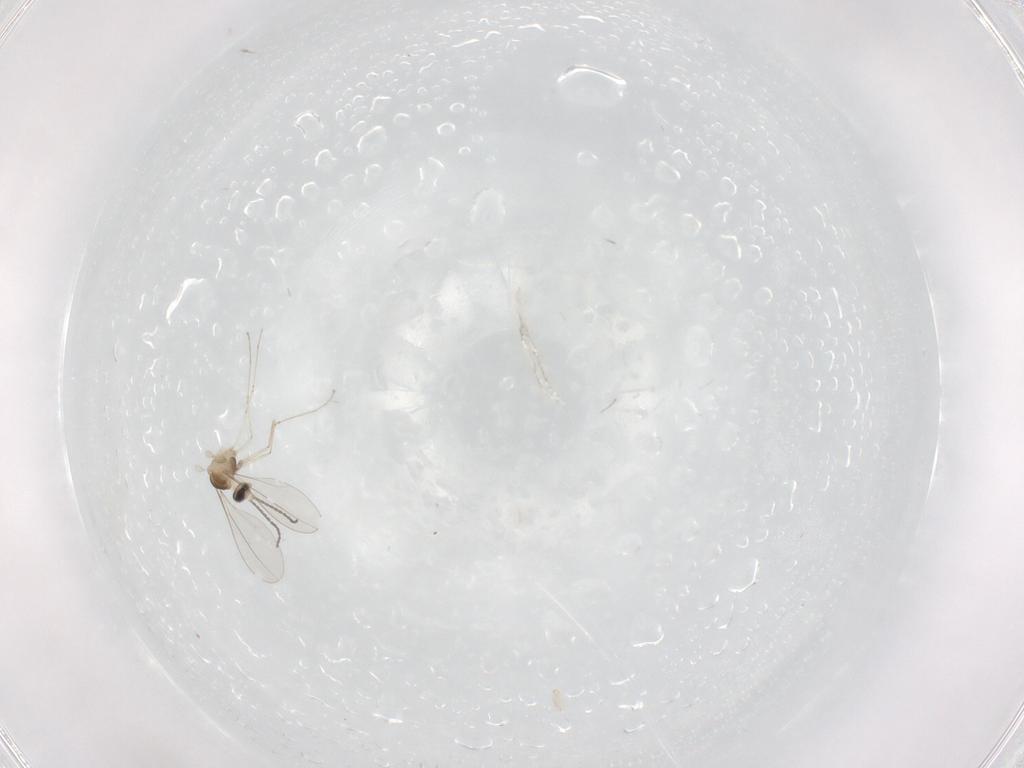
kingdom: Animalia
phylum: Arthropoda
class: Insecta
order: Diptera
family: Cecidomyiidae
